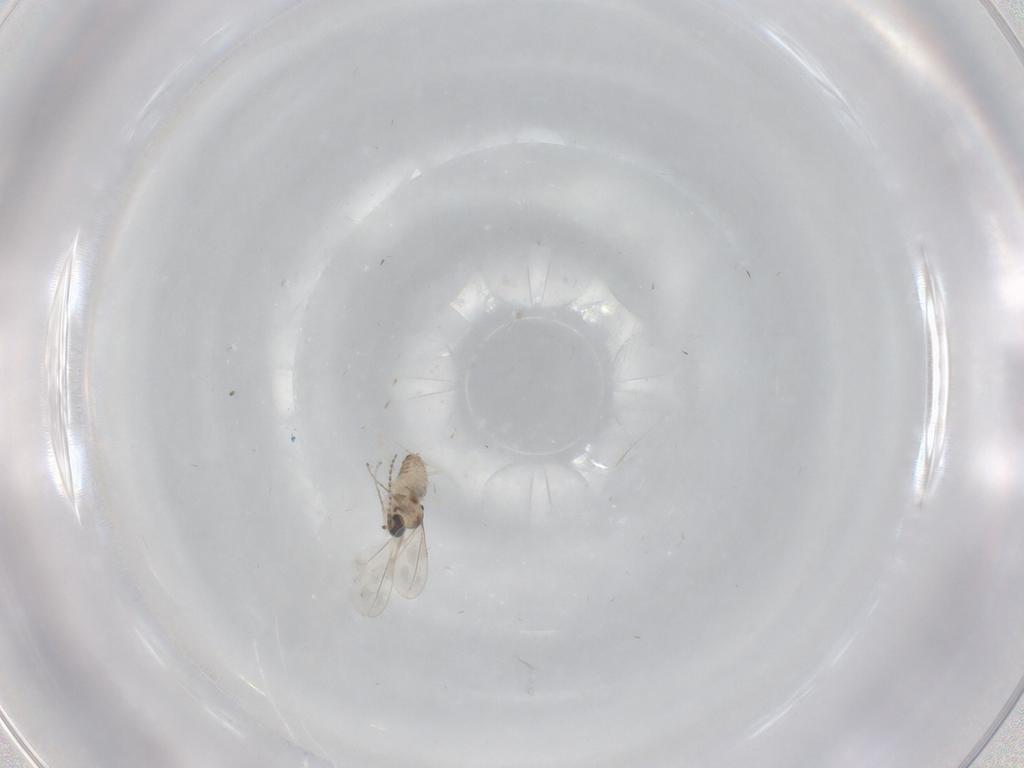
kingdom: Animalia
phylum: Arthropoda
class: Insecta
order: Diptera
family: Cecidomyiidae
